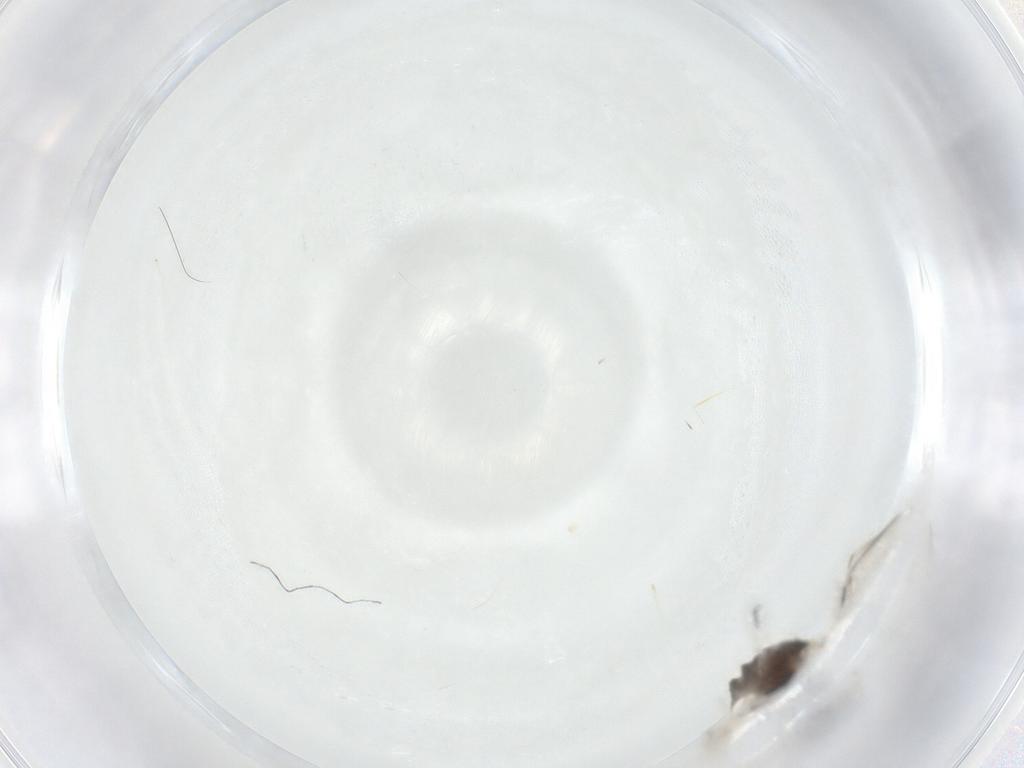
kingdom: Animalia
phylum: Arthropoda
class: Insecta
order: Hemiptera
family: Aphididae
